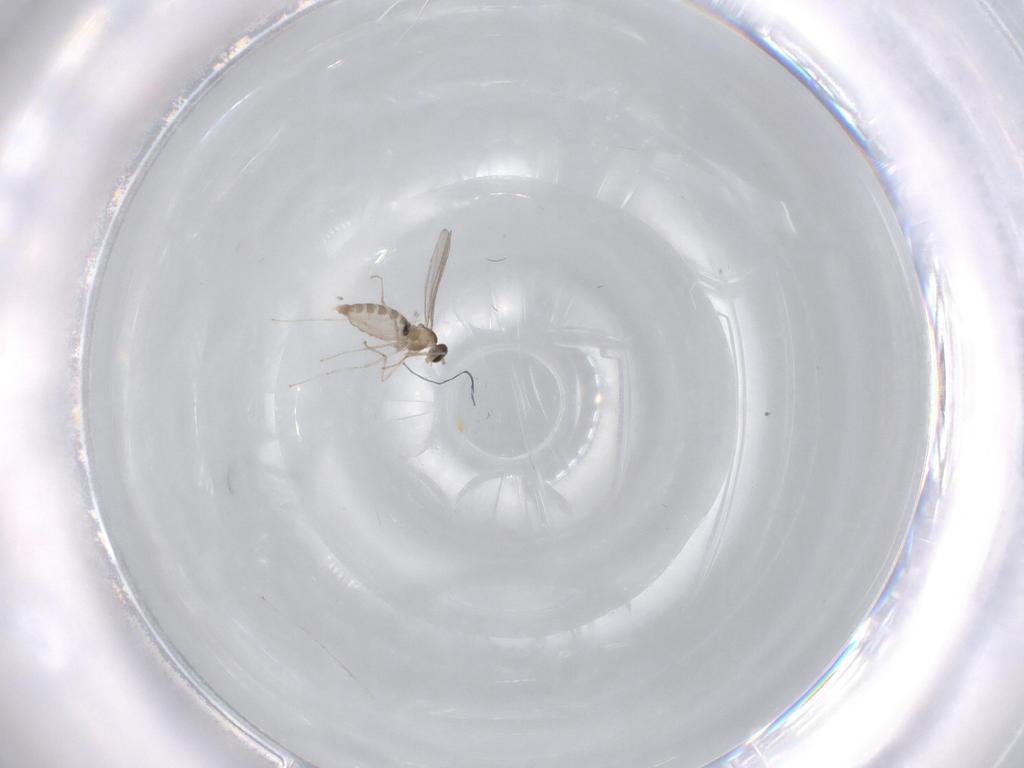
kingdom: Animalia
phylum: Arthropoda
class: Insecta
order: Diptera
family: Cecidomyiidae
